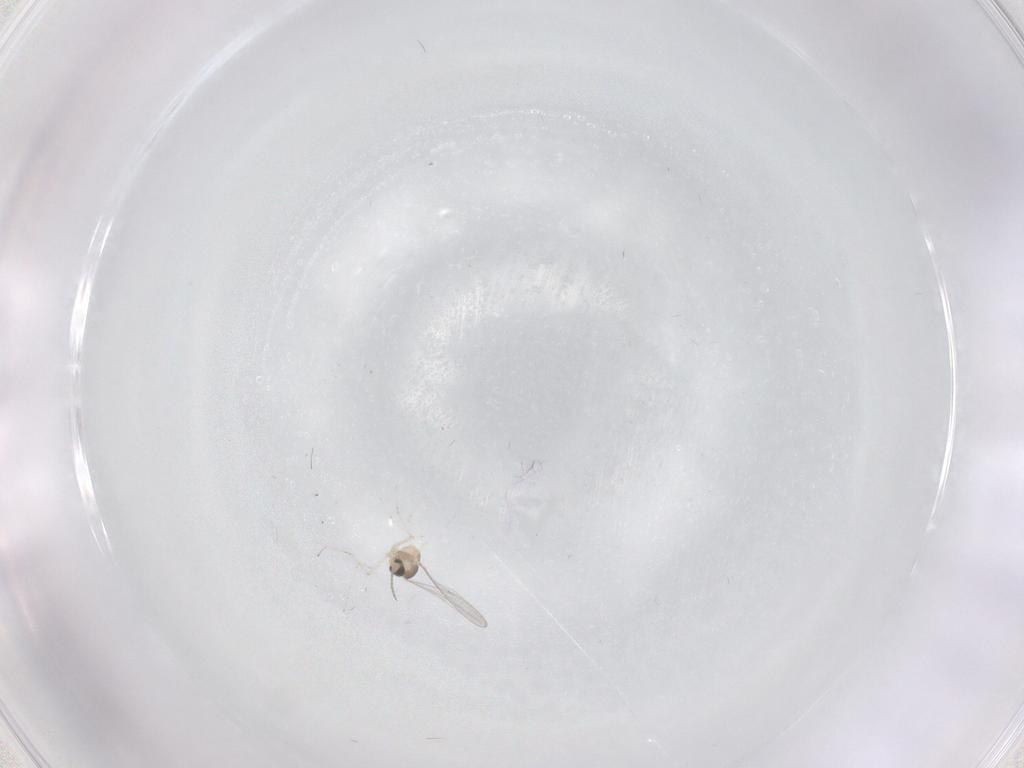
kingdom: Animalia
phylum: Arthropoda
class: Insecta
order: Diptera
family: Cecidomyiidae
